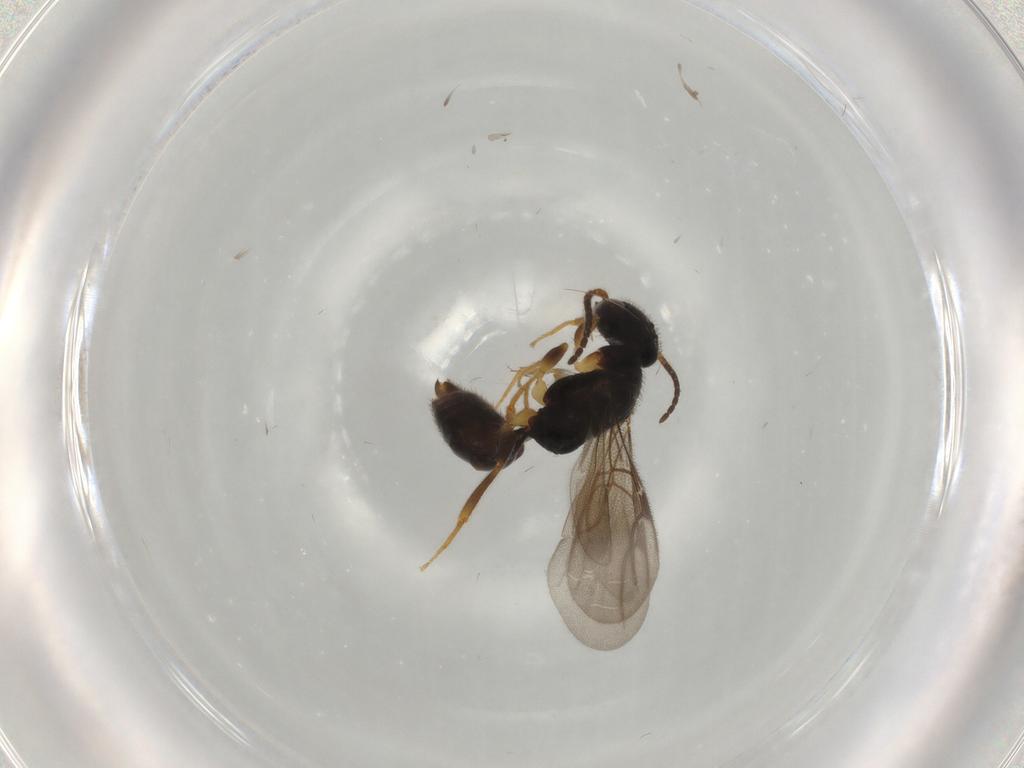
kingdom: Animalia
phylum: Arthropoda
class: Insecta
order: Hymenoptera
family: Bethylidae
